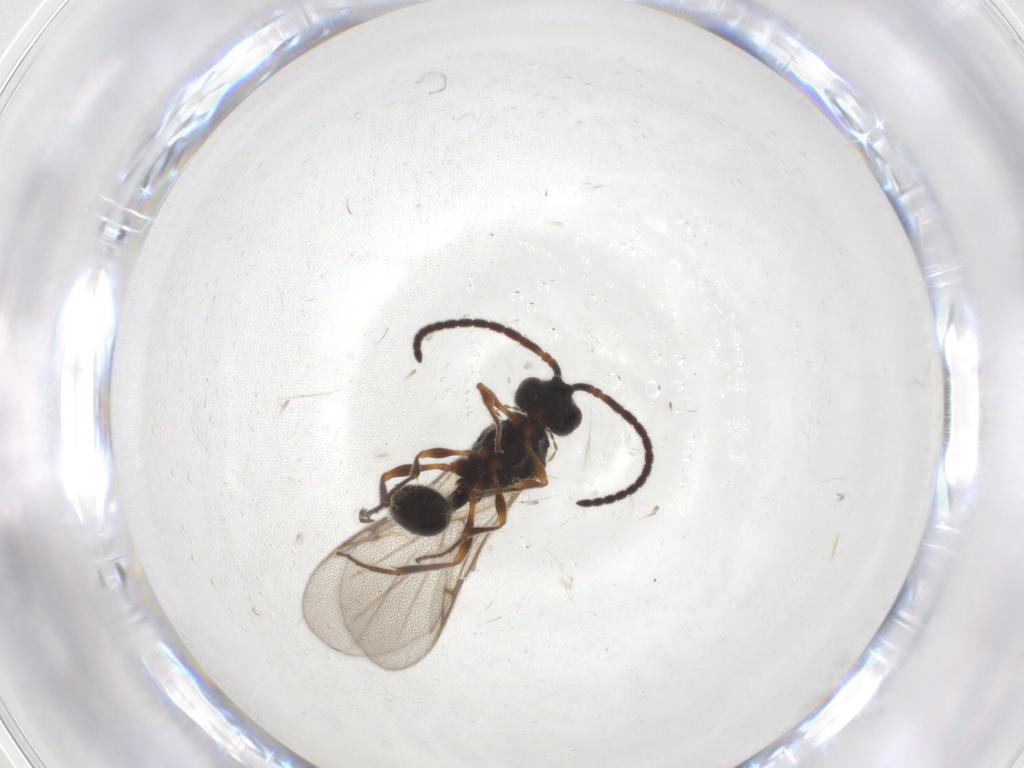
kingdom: Animalia
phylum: Arthropoda
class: Insecta
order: Hymenoptera
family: Diapriidae
